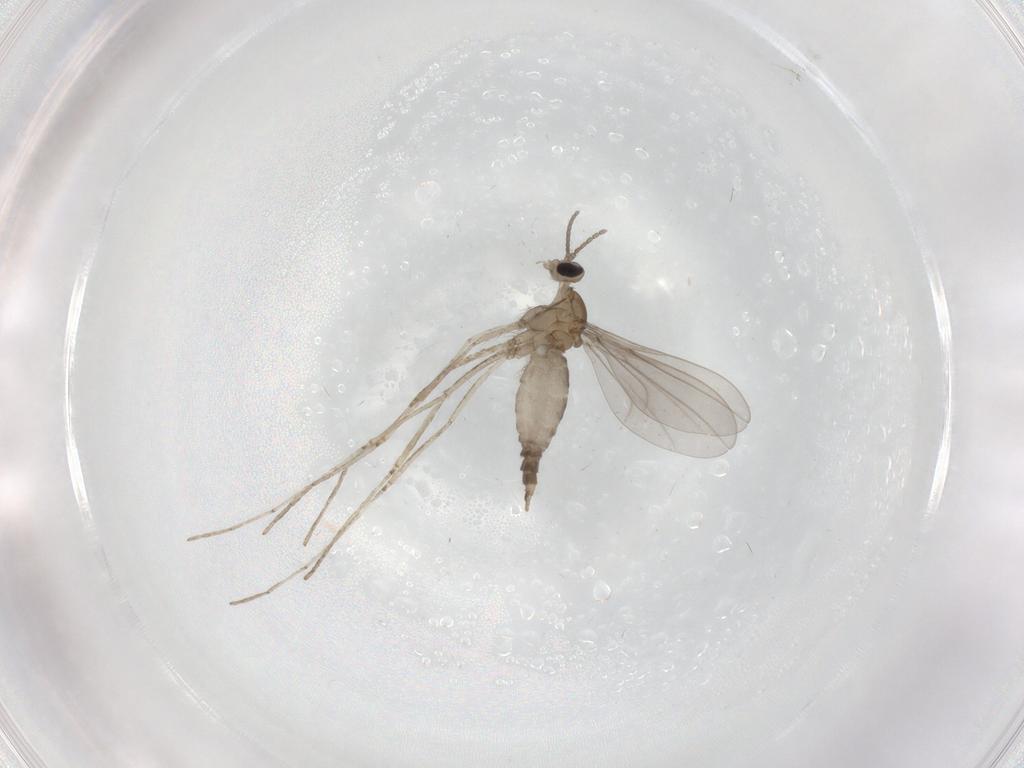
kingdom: Animalia
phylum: Arthropoda
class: Insecta
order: Diptera
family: Cecidomyiidae
